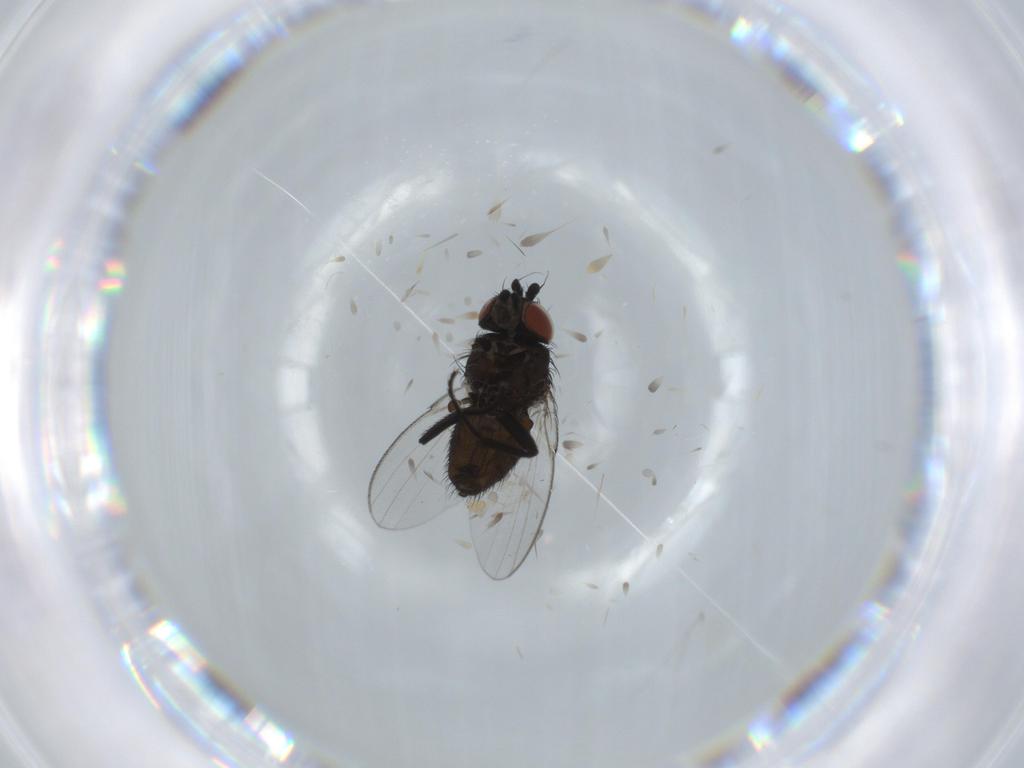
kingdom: Animalia
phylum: Arthropoda
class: Insecta
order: Diptera
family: Milichiidae
